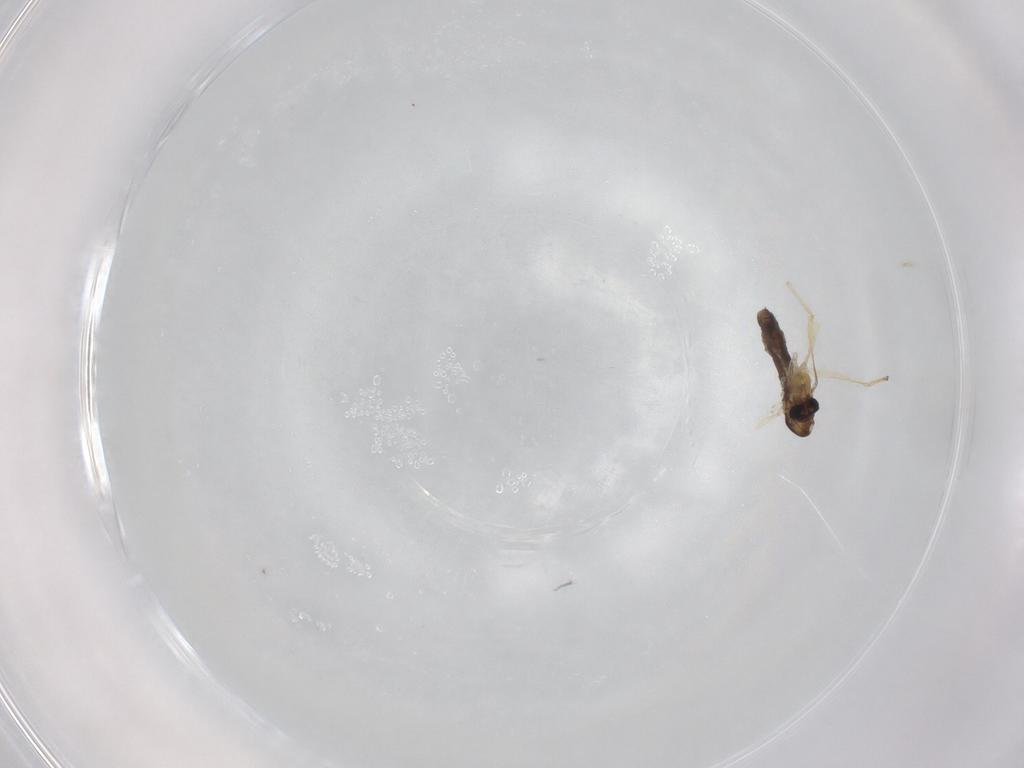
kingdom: Animalia
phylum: Arthropoda
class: Insecta
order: Diptera
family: Chironomidae
